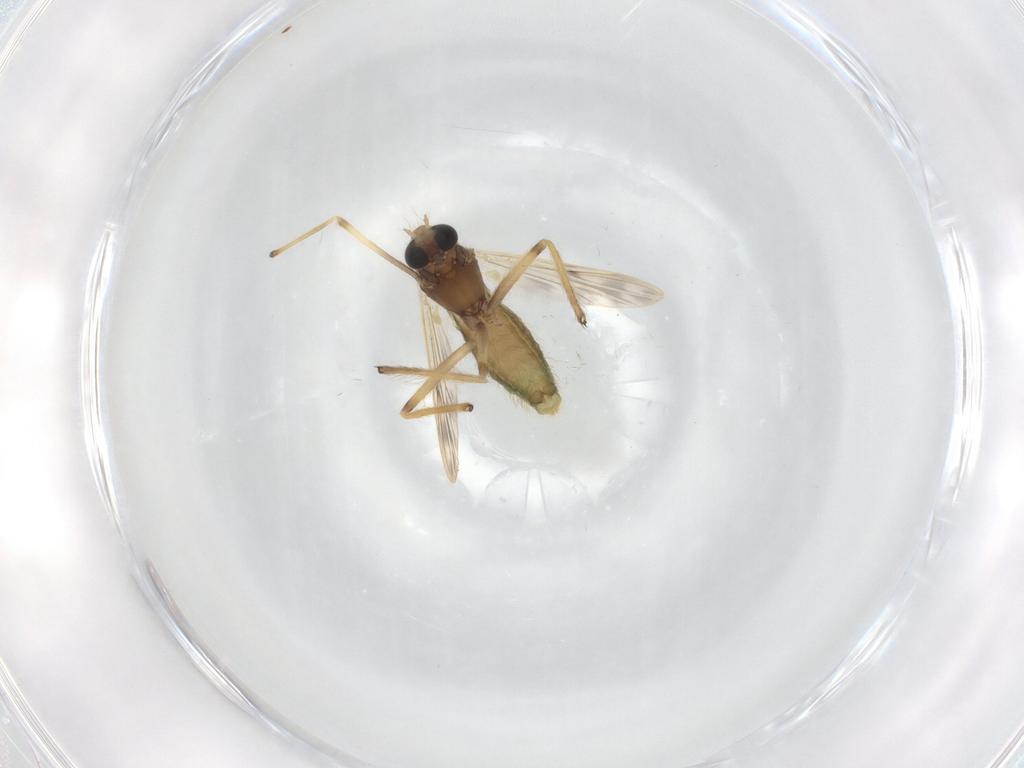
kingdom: Animalia
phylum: Arthropoda
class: Insecta
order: Diptera
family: Chironomidae
